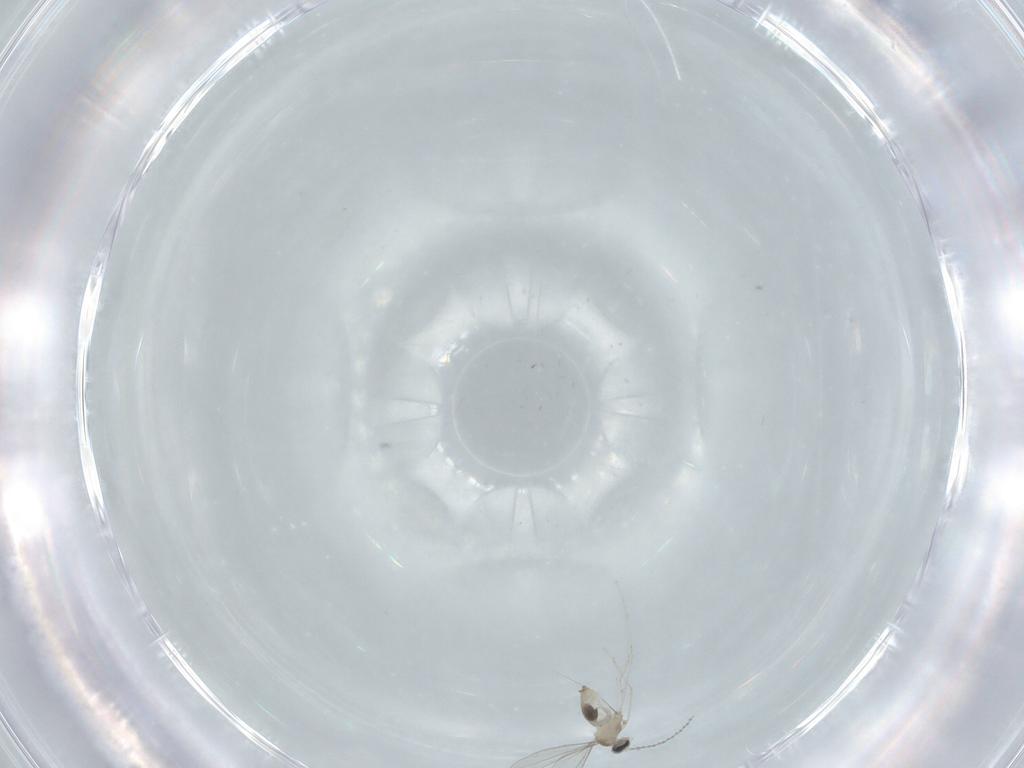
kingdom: Animalia
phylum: Arthropoda
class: Insecta
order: Diptera
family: Cecidomyiidae
